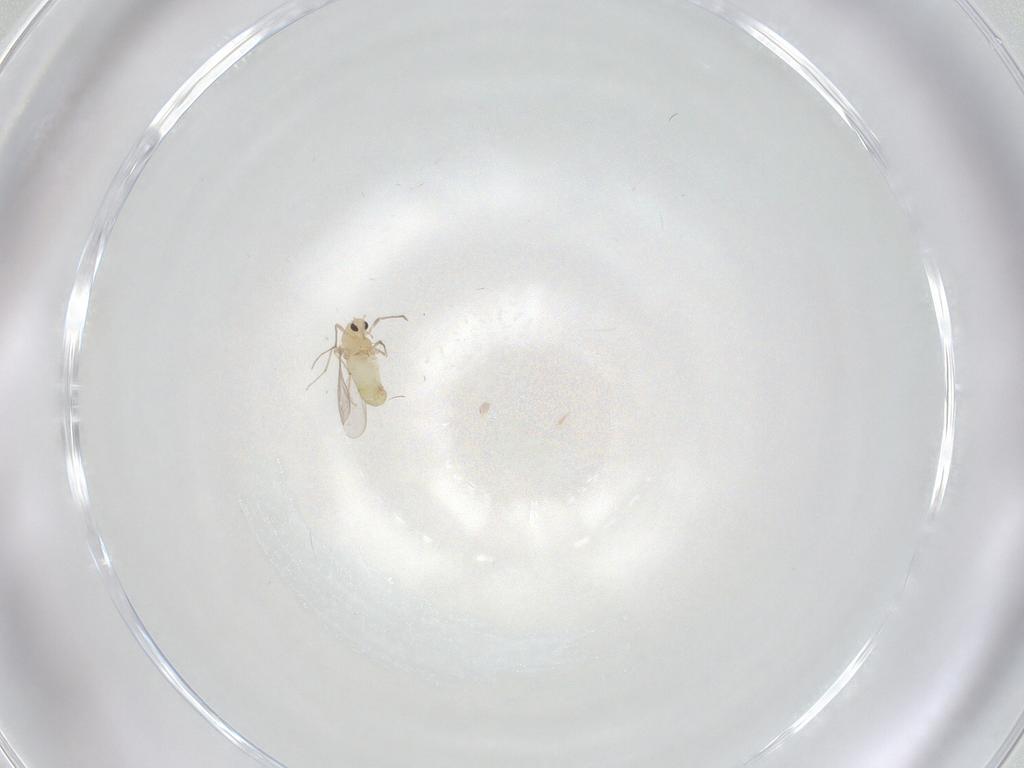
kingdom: Animalia
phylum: Arthropoda
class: Insecta
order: Diptera
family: Chironomidae
